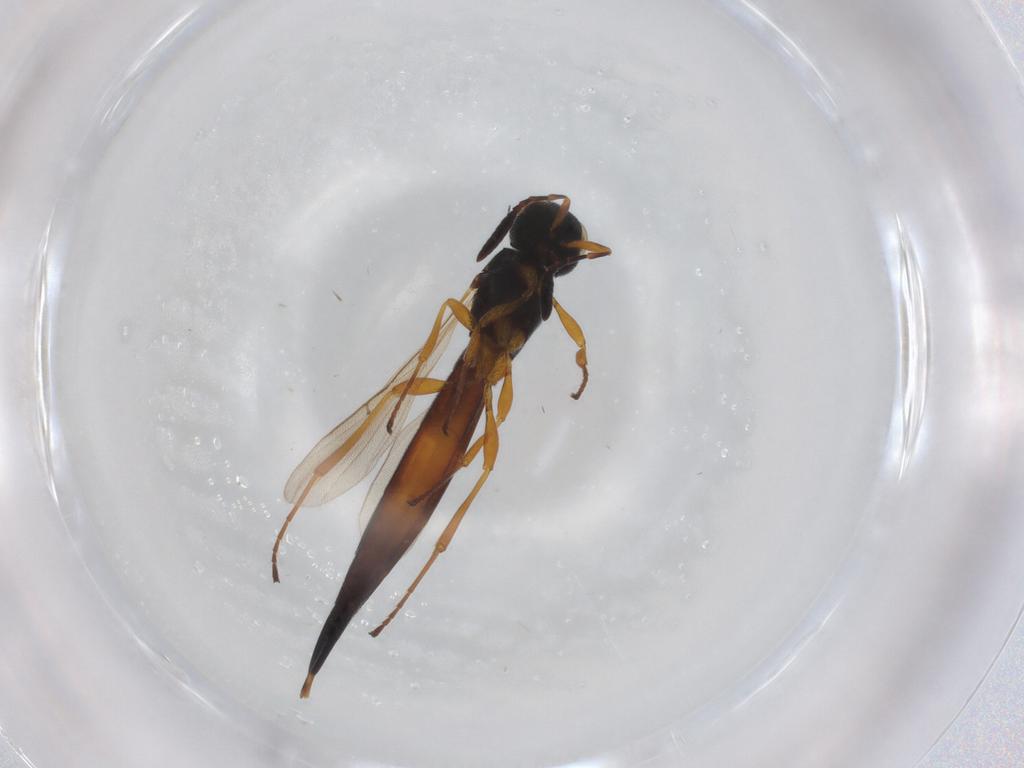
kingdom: Animalia
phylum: Arthropoda
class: Insecta
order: Hymenoptera
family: Scelionidae
